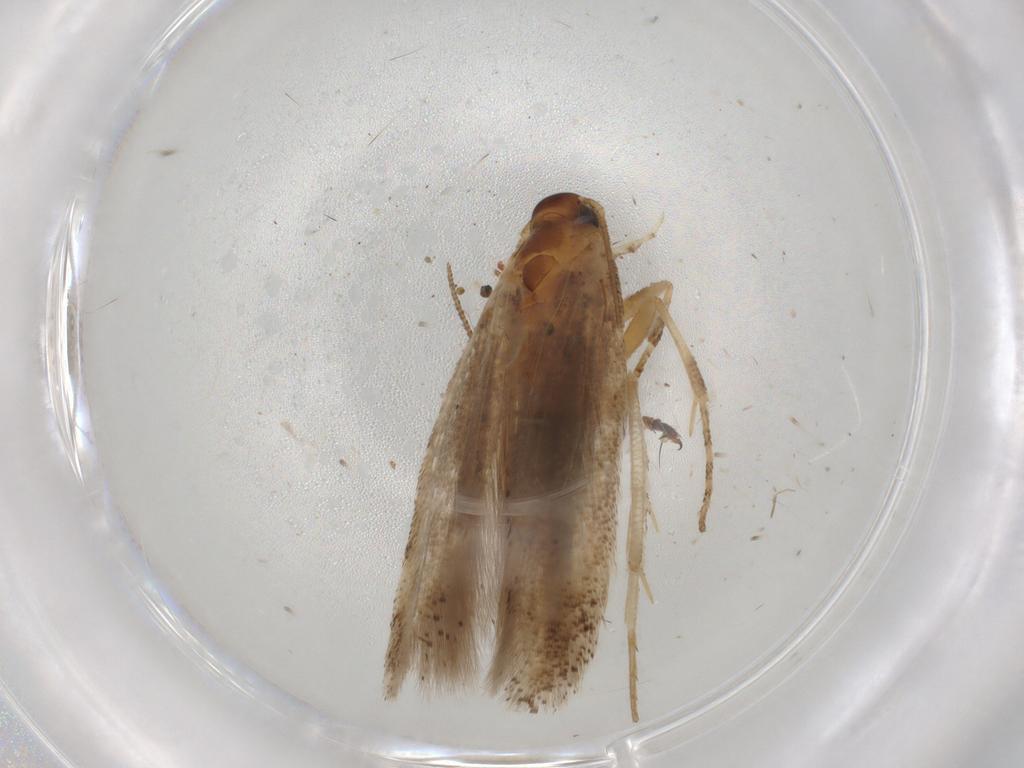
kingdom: Animalia
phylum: Arthropoda
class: Insecta
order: Lepidoptera
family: Gelechiidae
